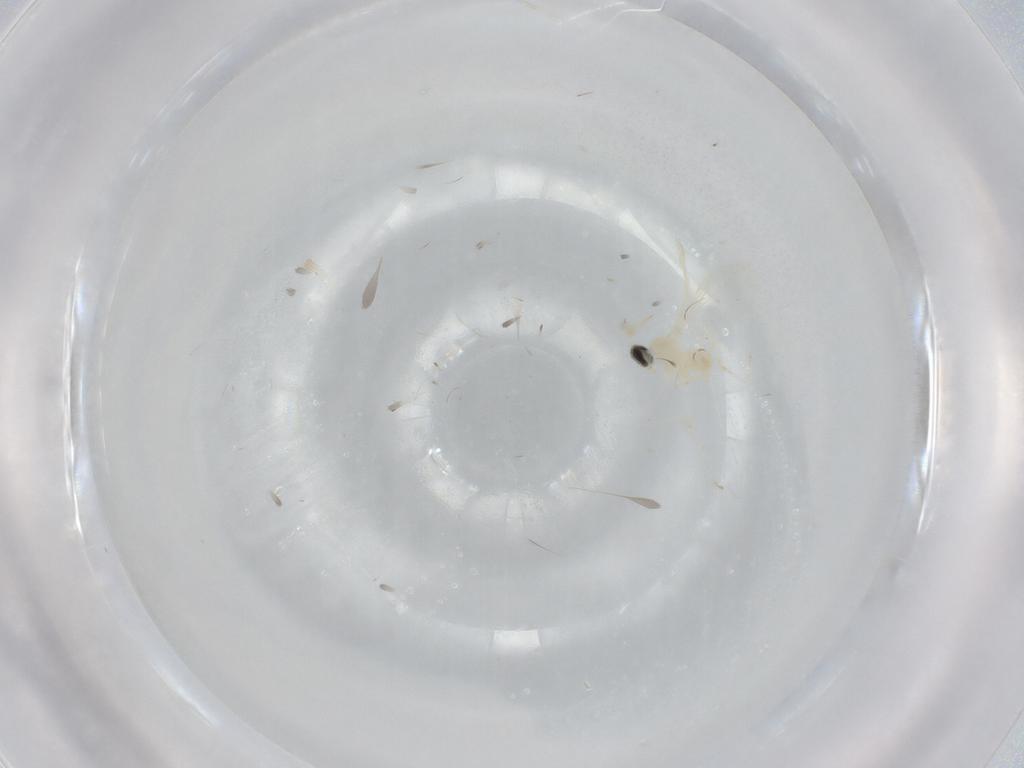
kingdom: Animalia
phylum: Arthropoda
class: Insecta
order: Diptera
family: Cecidomyiidae
